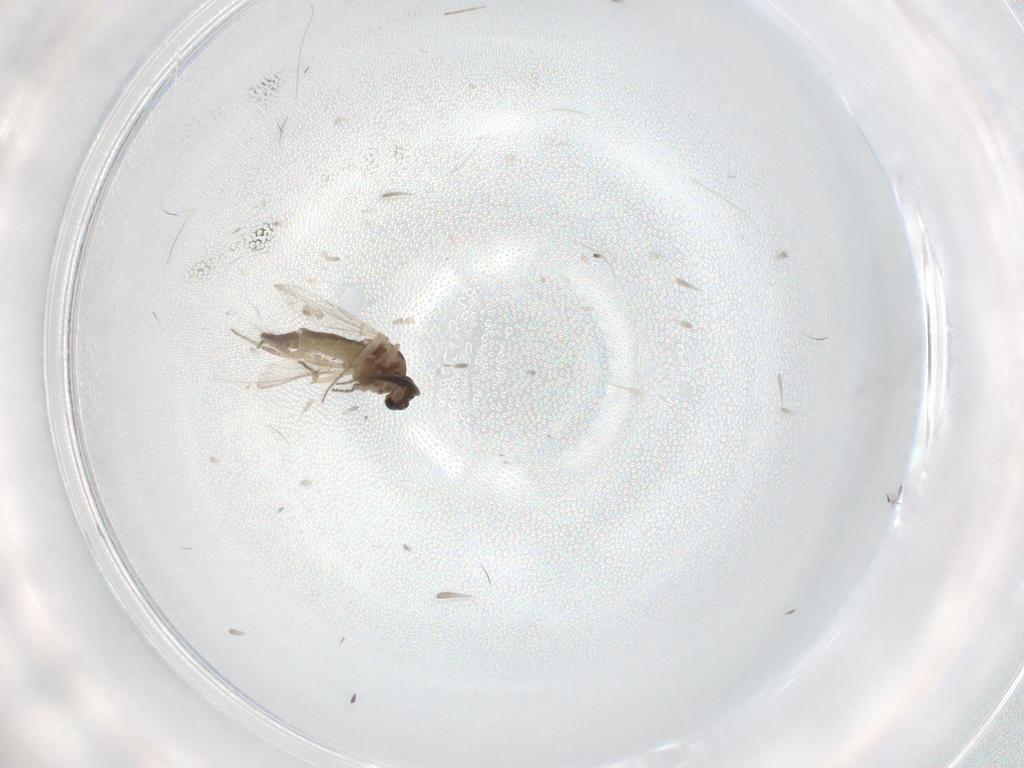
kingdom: Animalia
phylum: Arthropoda
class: Insecta
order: Diptera
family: Ceratopogonidae
